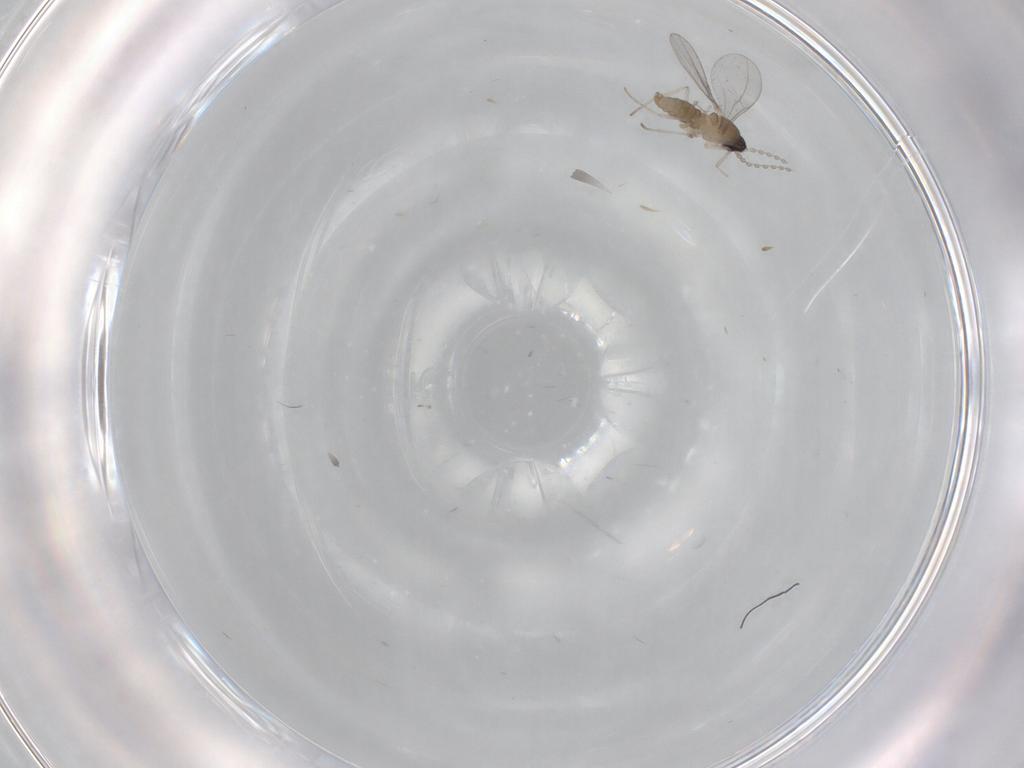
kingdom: Animalia
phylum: Arthropoda
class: Insecta
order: Diptera
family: Cecidomyiidae
